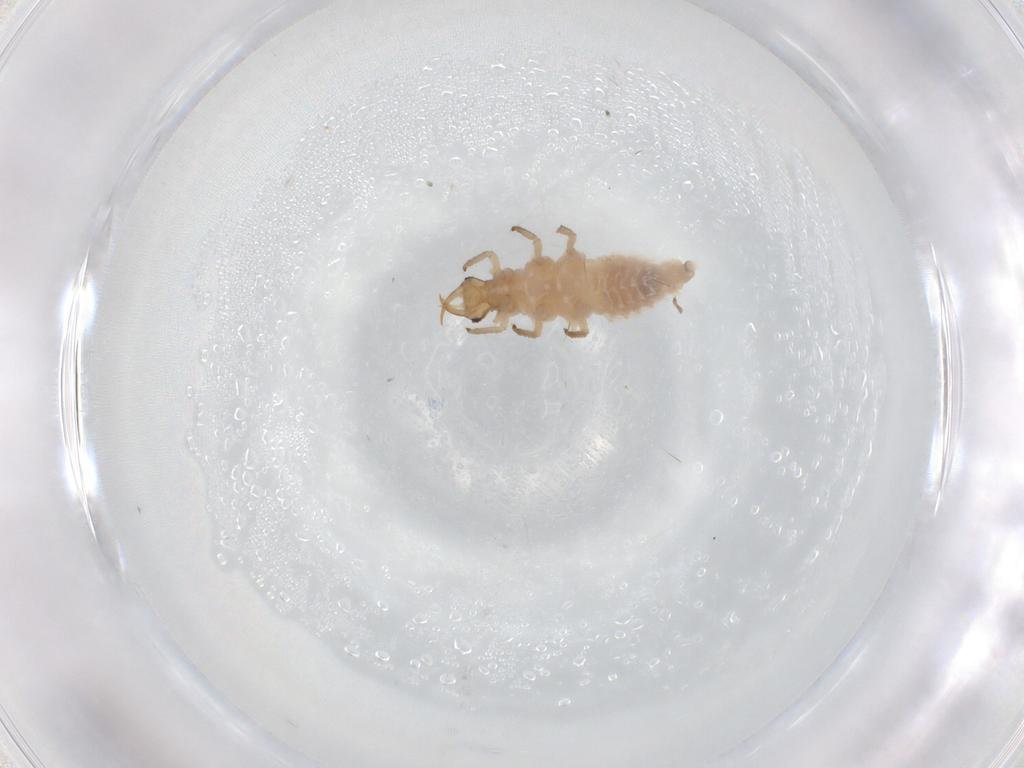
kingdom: Animalia
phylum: Arthropoda
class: Insecta
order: Neuroptera
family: Chrysopidae
